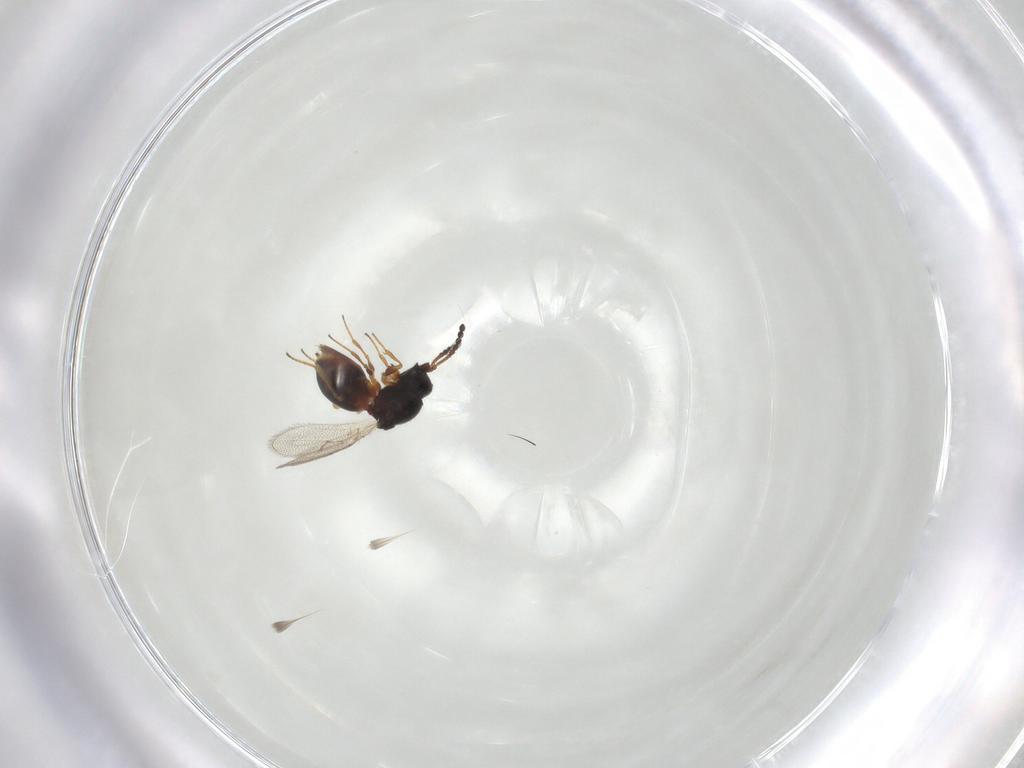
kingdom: Animalia
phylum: Arthropoda
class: Insecta
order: Hymenoptera
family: Figitidae
